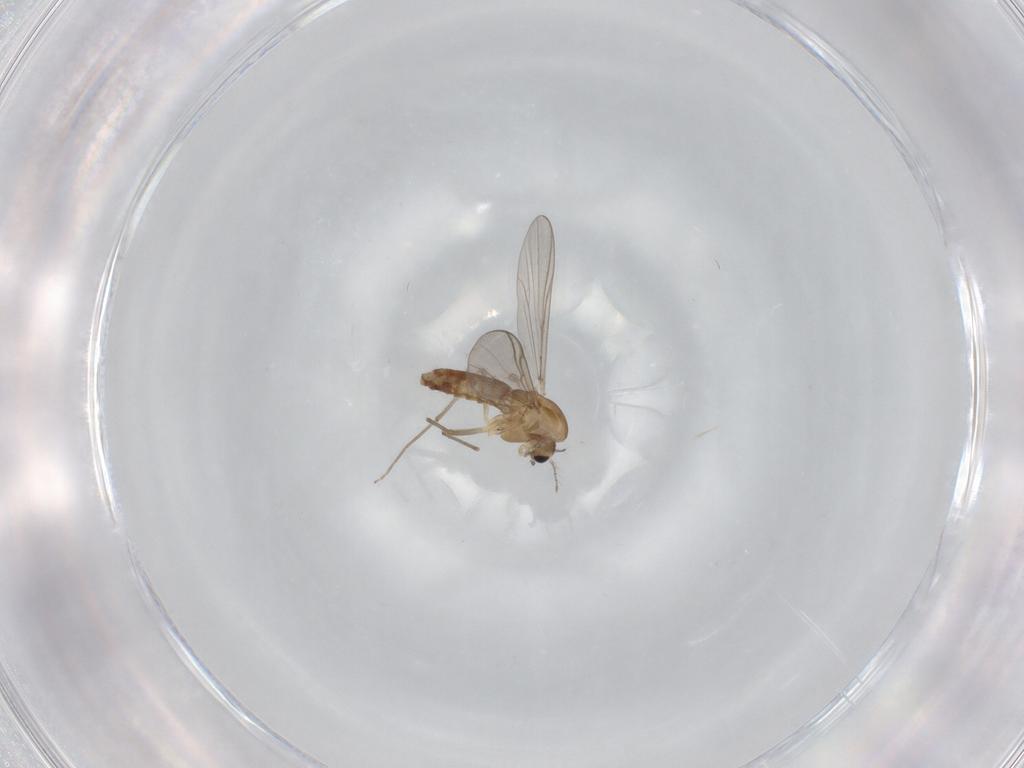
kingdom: Animalia
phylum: Arthropoda
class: Insecta
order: Diptera
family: Chironomidae
